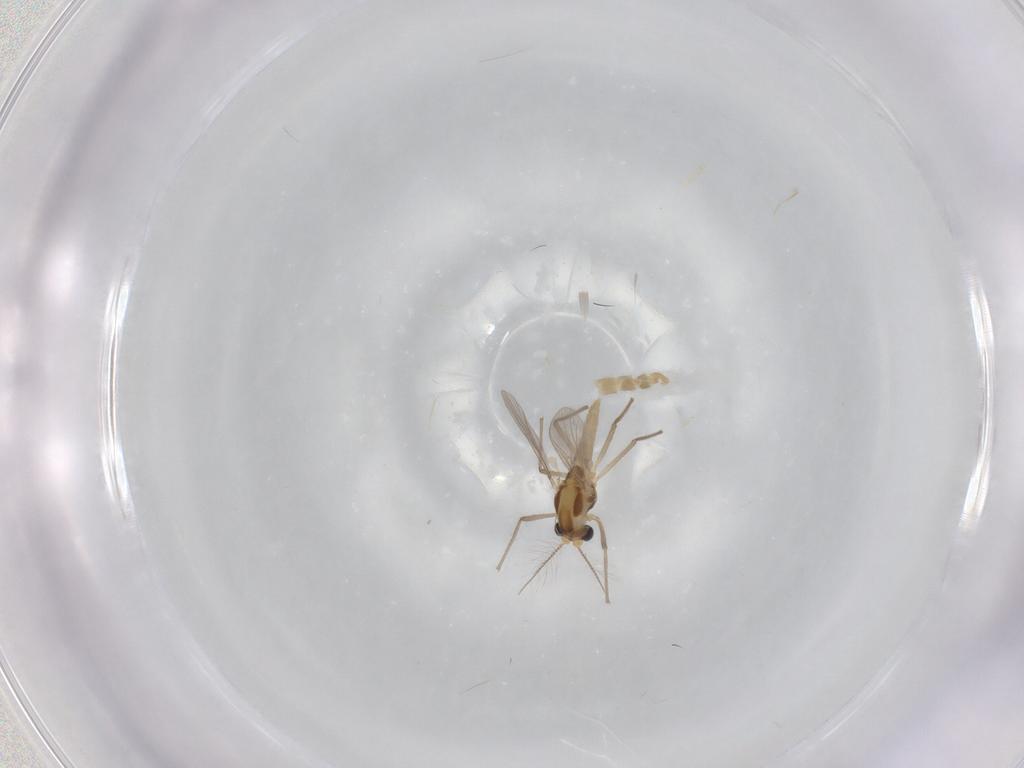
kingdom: Animalia
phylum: Arthropoda
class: Insecta
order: Diptera
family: Chironomidae
